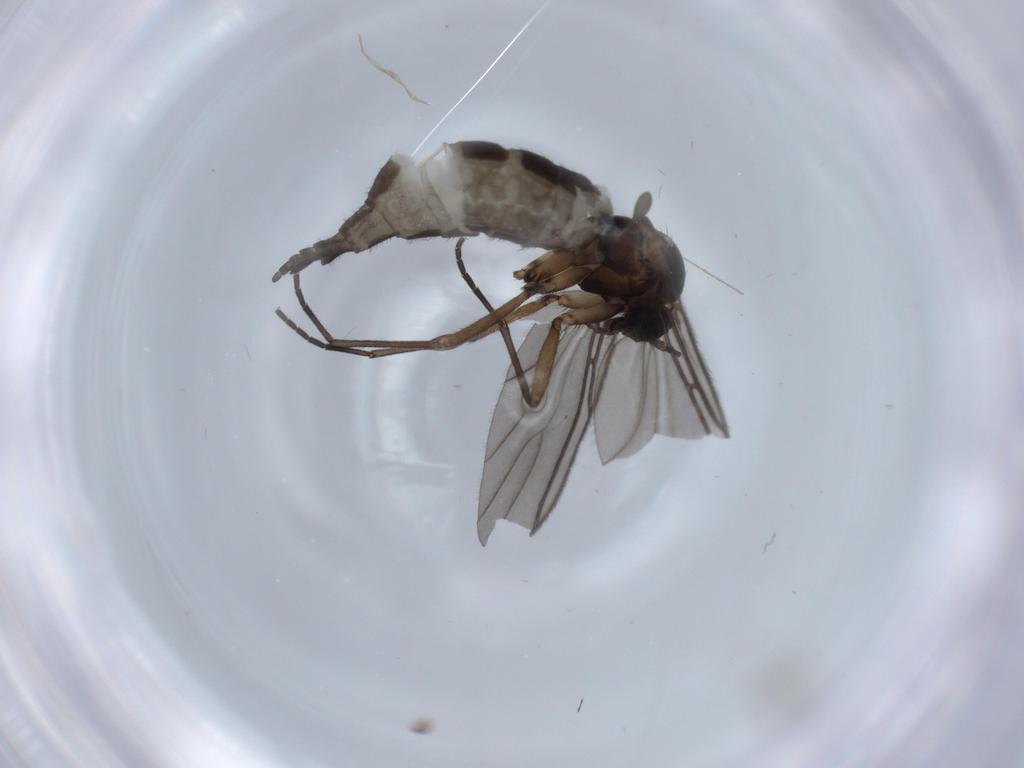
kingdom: Animalia
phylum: Arthropoda
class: Insecta
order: Diptera
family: Sciaridae
